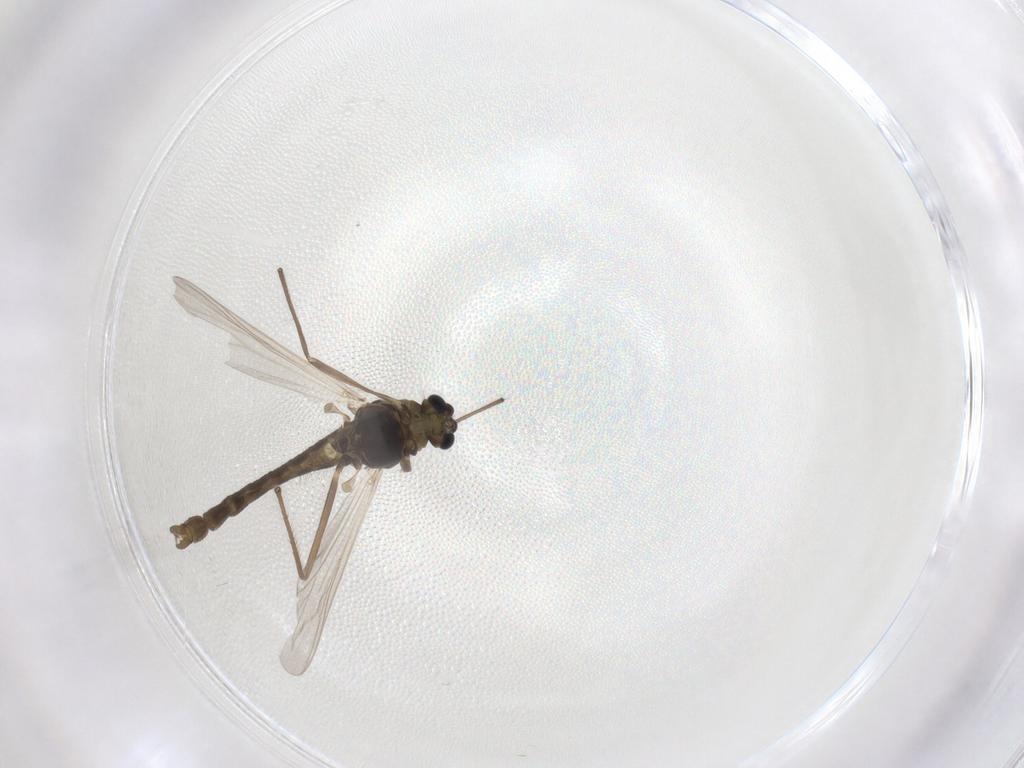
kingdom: Animalia
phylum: Arthropoda
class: Insecta
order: Diptera
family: Chironomidae
